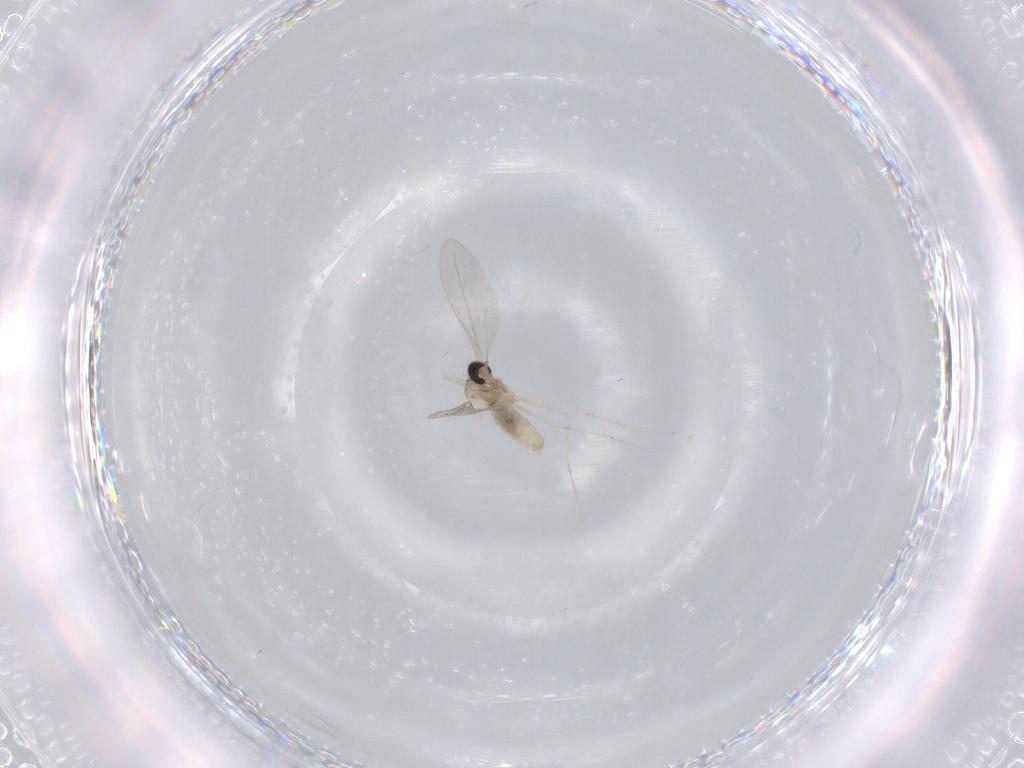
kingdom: Animalia
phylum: Arthropoda
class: Insecta
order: Diptera
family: Cecidomyiidae
